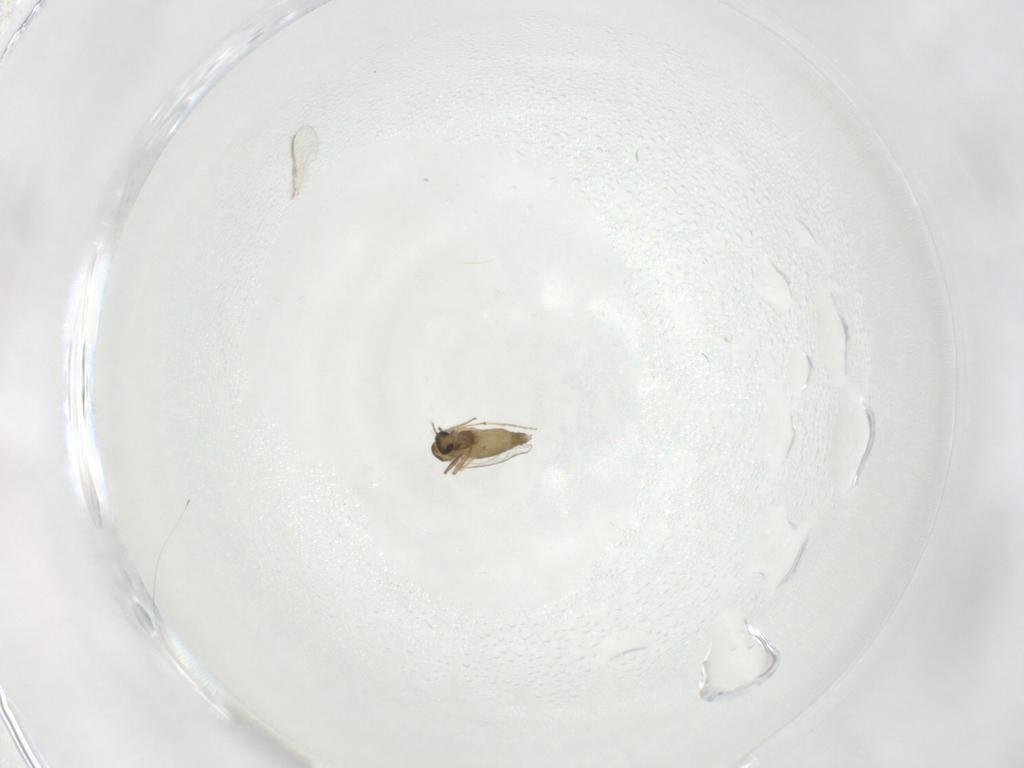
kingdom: Animalia
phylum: Arthropoda
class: Insecta
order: Diptera
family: Chironomidae
